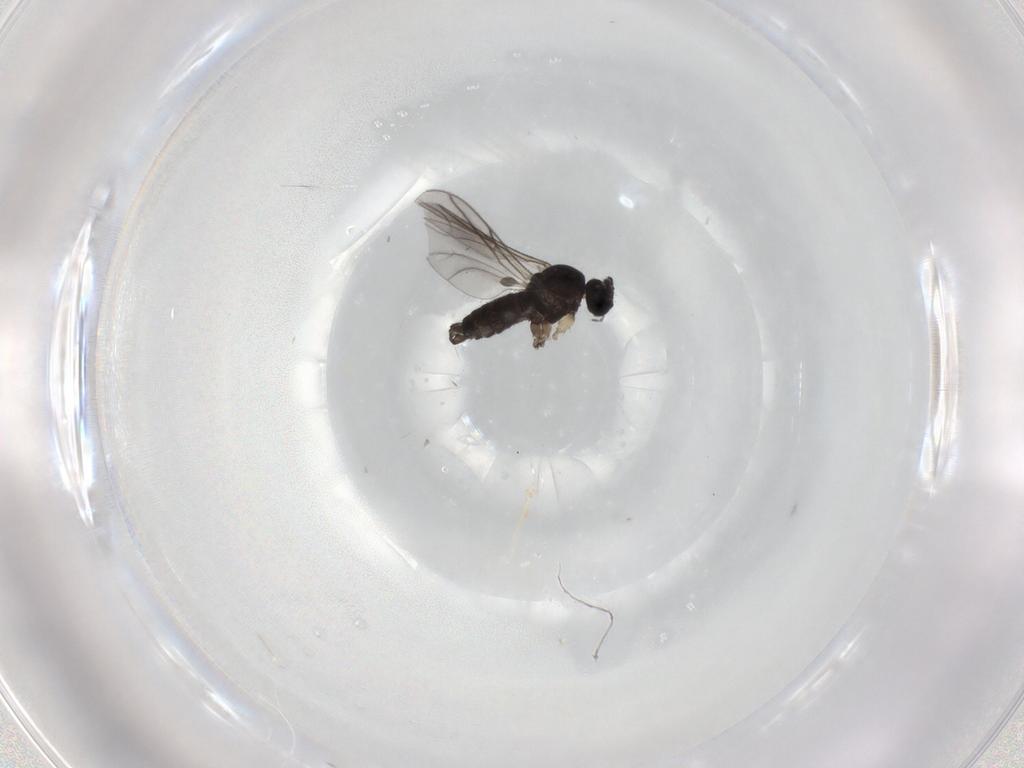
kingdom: Animalia
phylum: Arthropoda
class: Insecta
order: Diptera
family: Sciaridae
